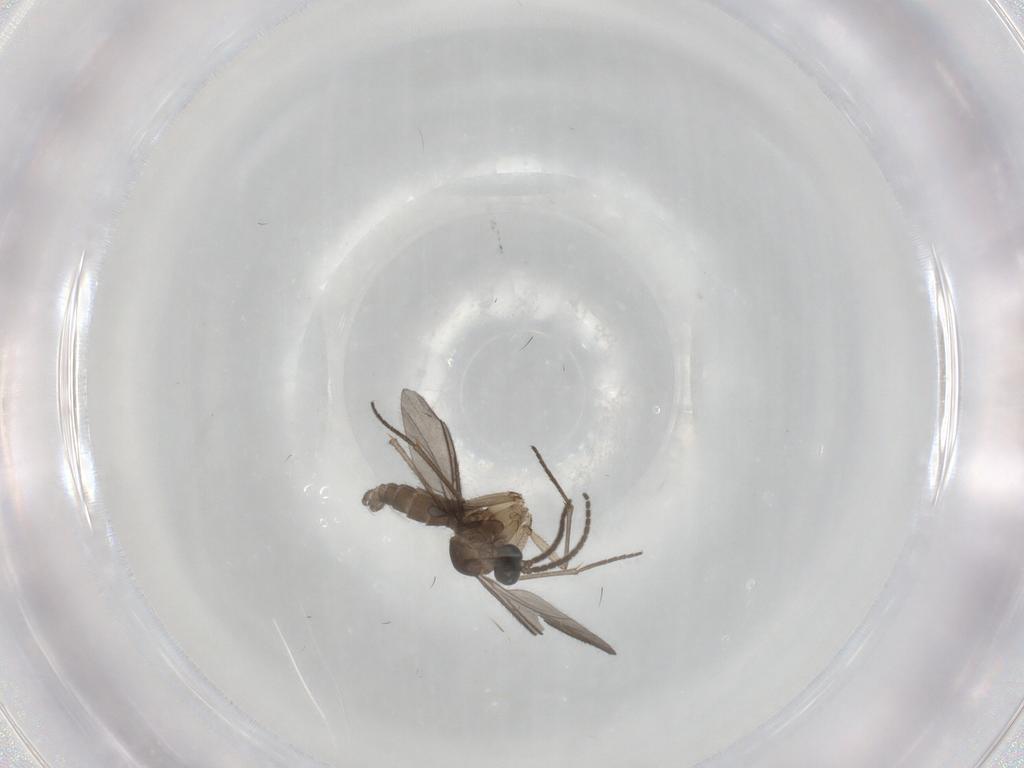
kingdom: Animalia
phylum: Arthropoda
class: Insecta
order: Diptera
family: Sciaridae
